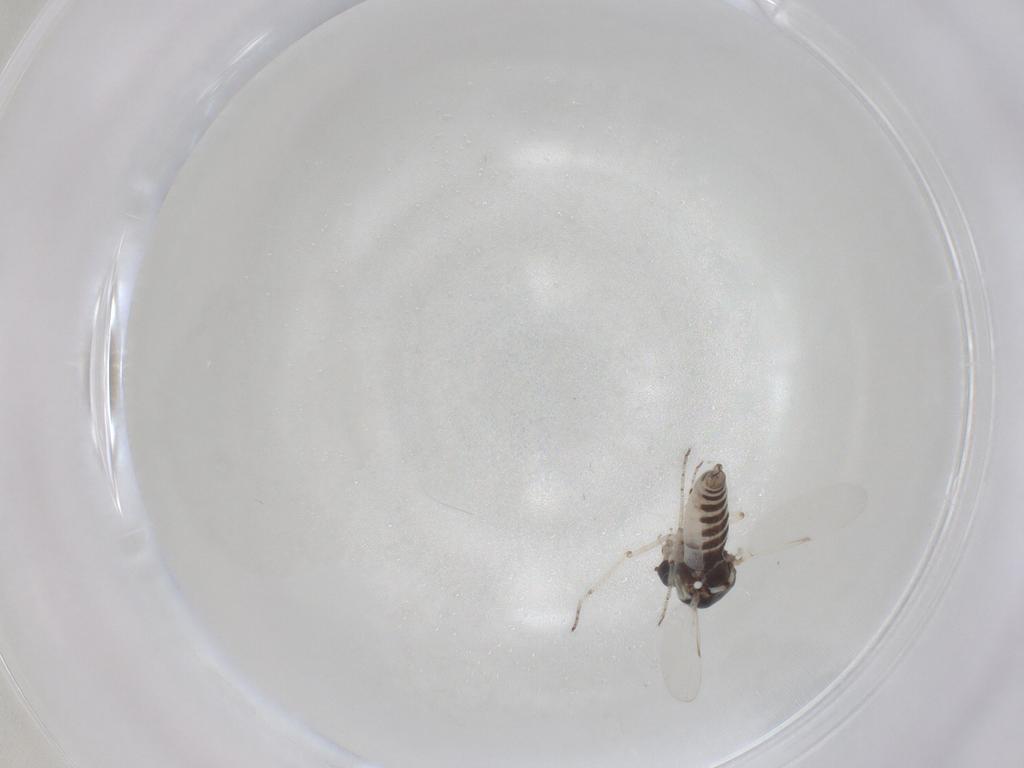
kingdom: Animalia
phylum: Arthropoda
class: Insecta
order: Diptera
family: Ceratopogonidae
